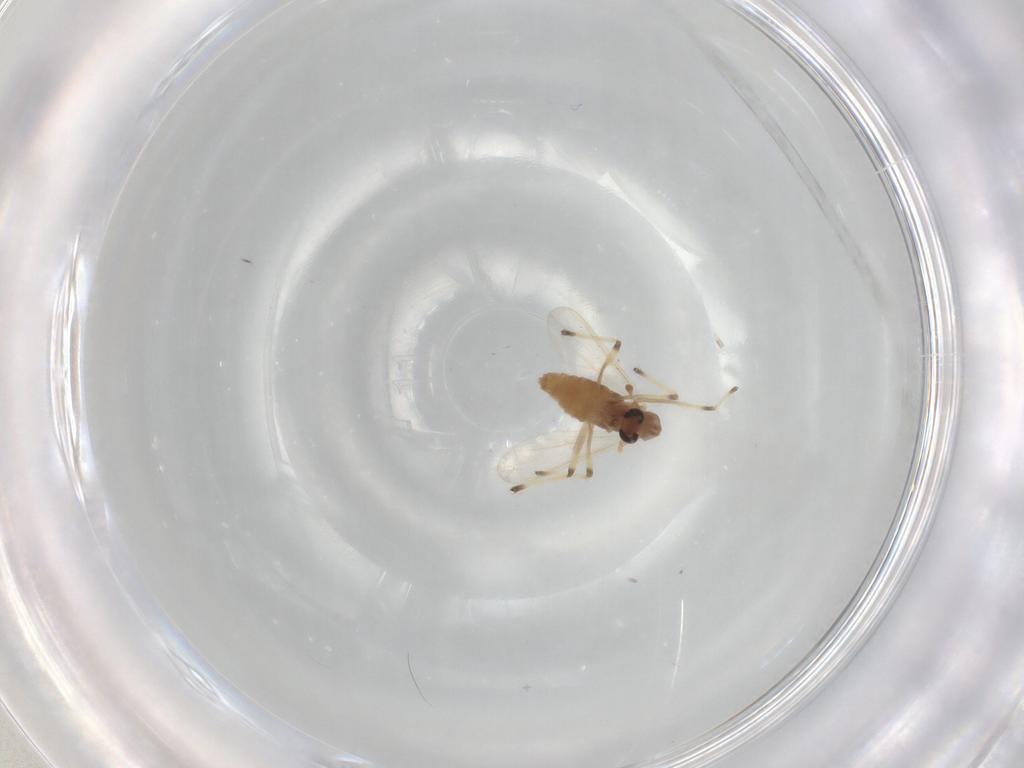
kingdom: Animalia
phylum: Arthropoda
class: Insecta
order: Diptera
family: Chironomidae
